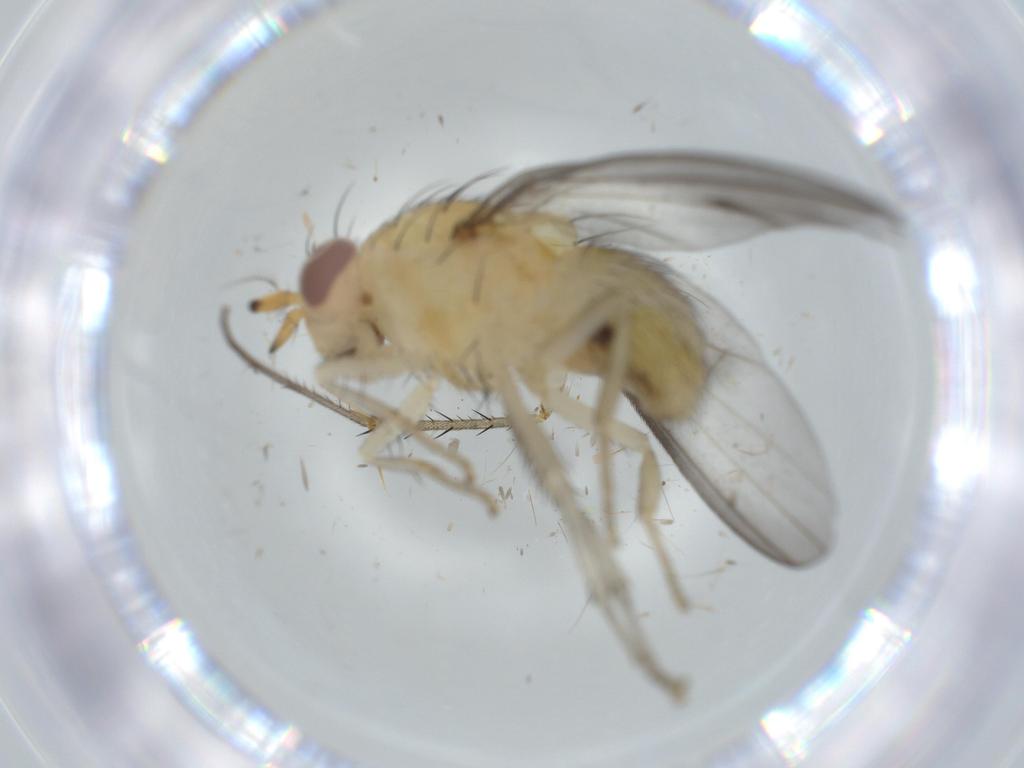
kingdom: Animalia
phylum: Arthropoda
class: Insecta
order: Diptera
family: Lauxaniidae
